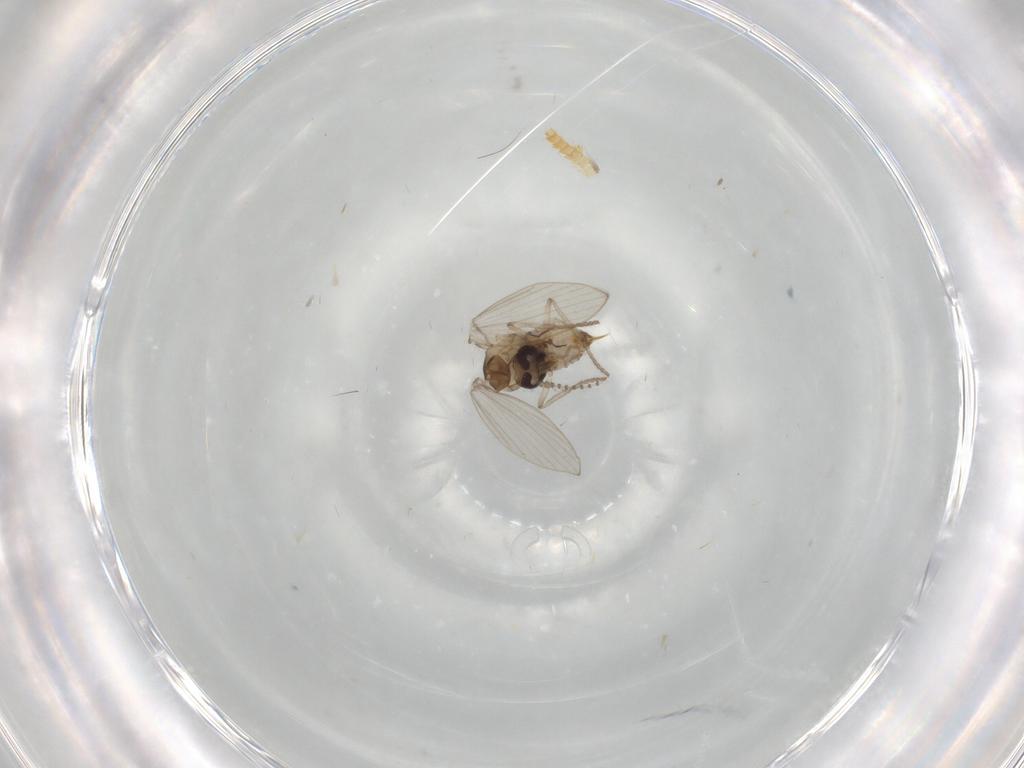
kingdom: Animalia
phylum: Arthropoda
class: Insecta
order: Diptera
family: Psychodidae
